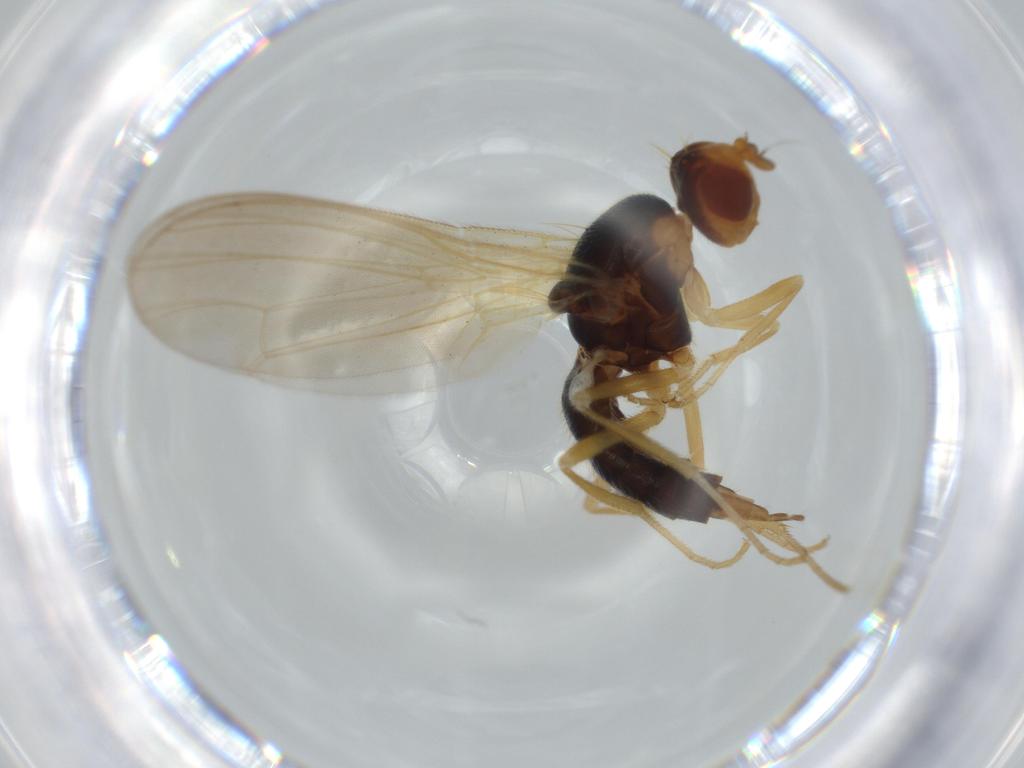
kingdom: Animalia
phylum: Arthropoda
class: Insecta
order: Diptera
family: Psilidae
